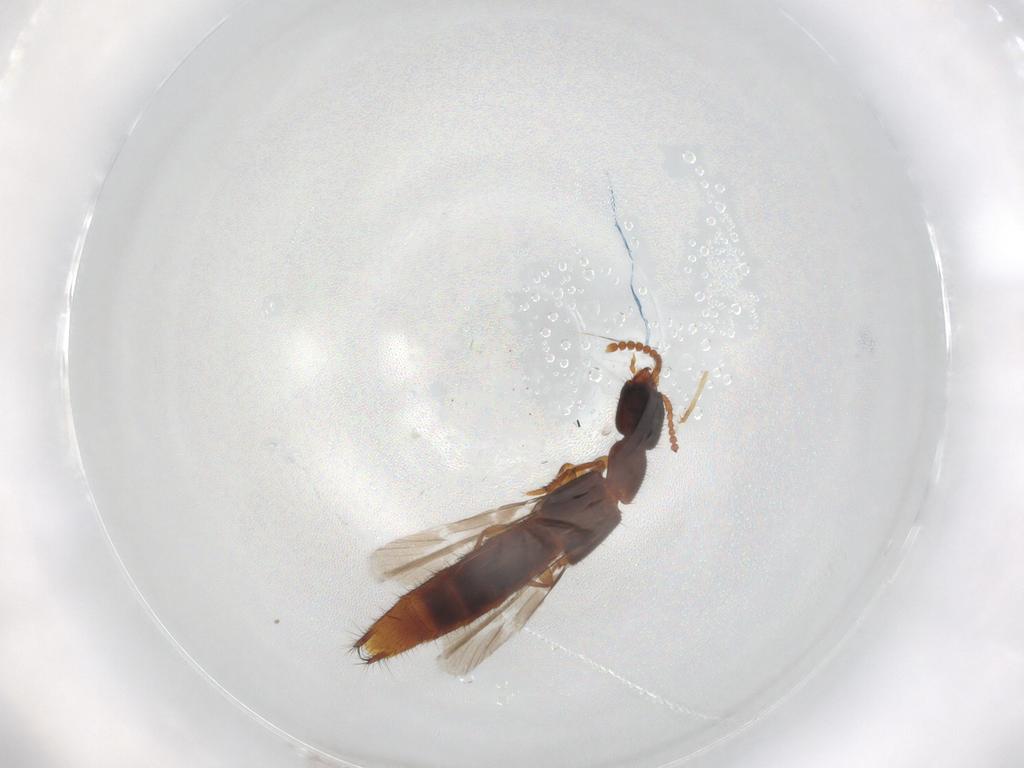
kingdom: Animalia
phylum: Arthropoda
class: Insecta
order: Coleoptera
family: Staphylinidae
